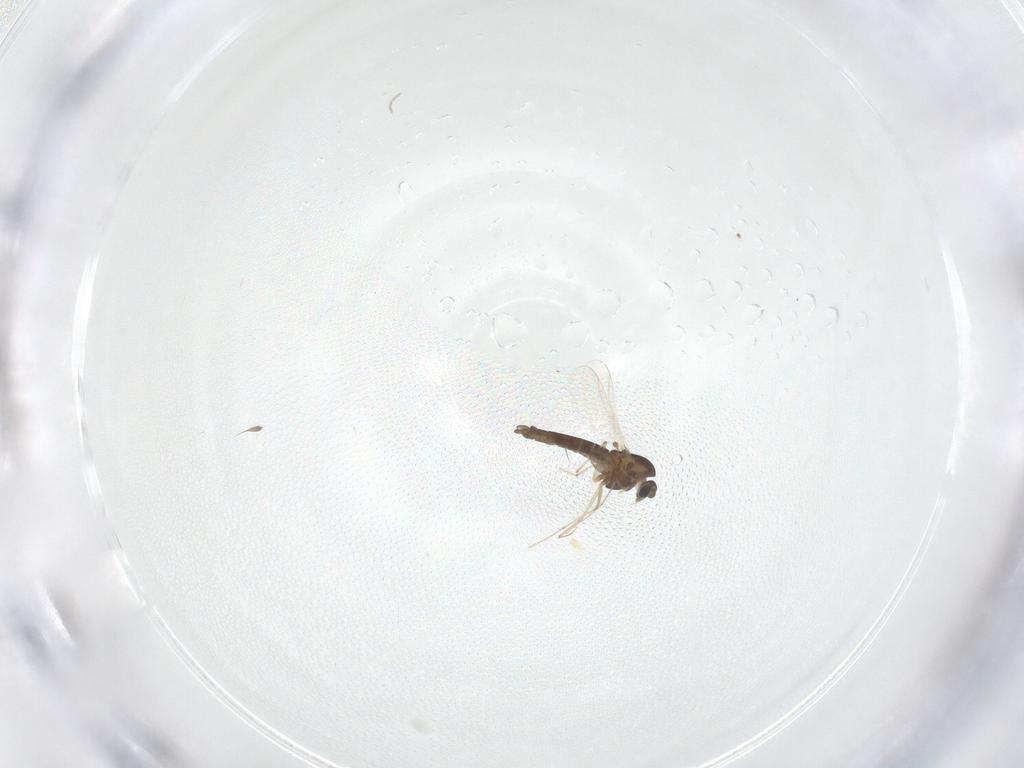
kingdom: Animalia
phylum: Arthropoda
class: Insecta
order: Diptera
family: Chironomidae
